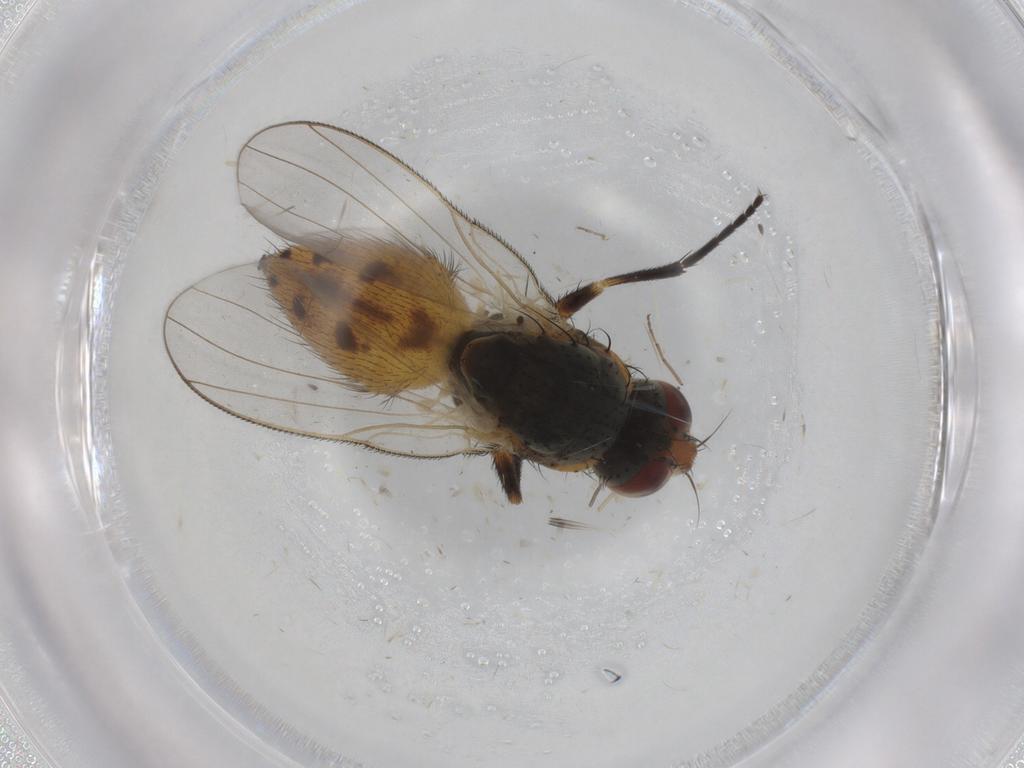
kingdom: Animalia
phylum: Arthropoda
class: Insecta
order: Diptera
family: Muscidae
